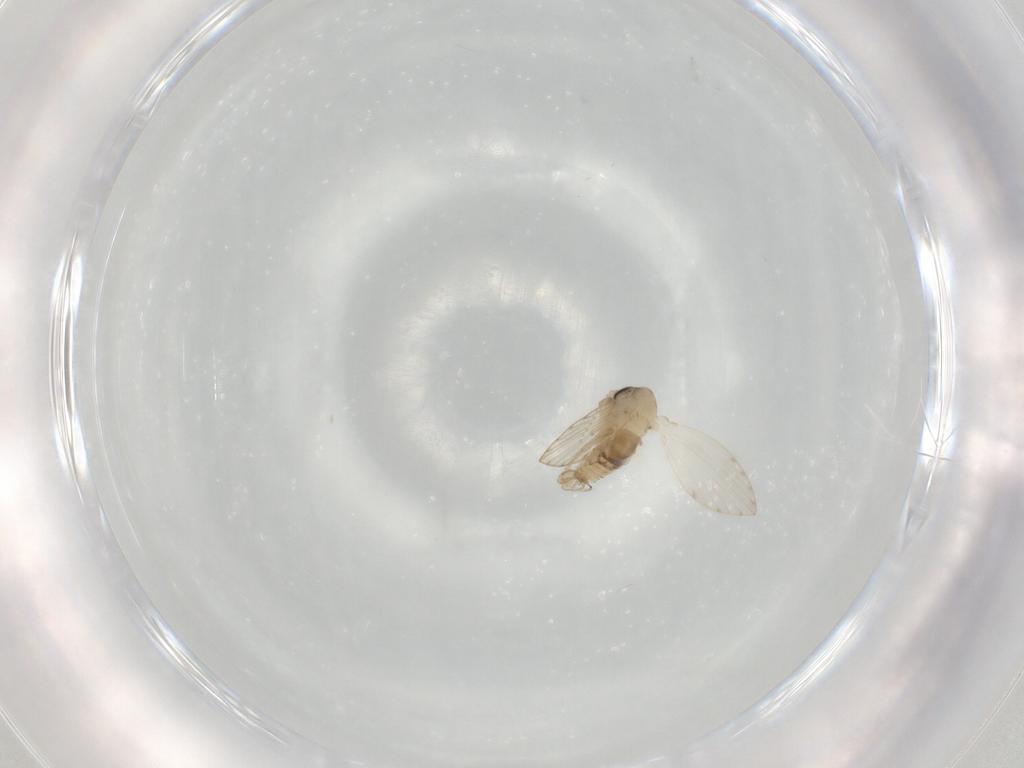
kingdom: Animalia
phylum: Arthropoda
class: Insecta
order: Diptera
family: Psychodidae
